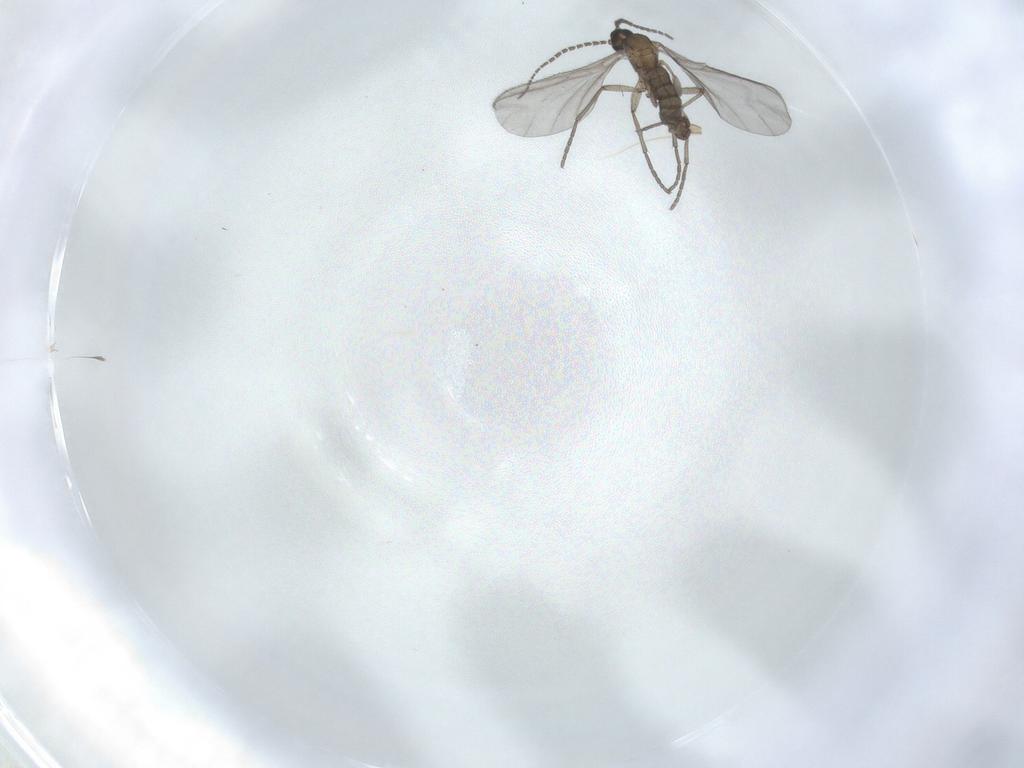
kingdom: Animalia
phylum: Arthropoda
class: Insecta
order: Diptera
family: Sciaridae
